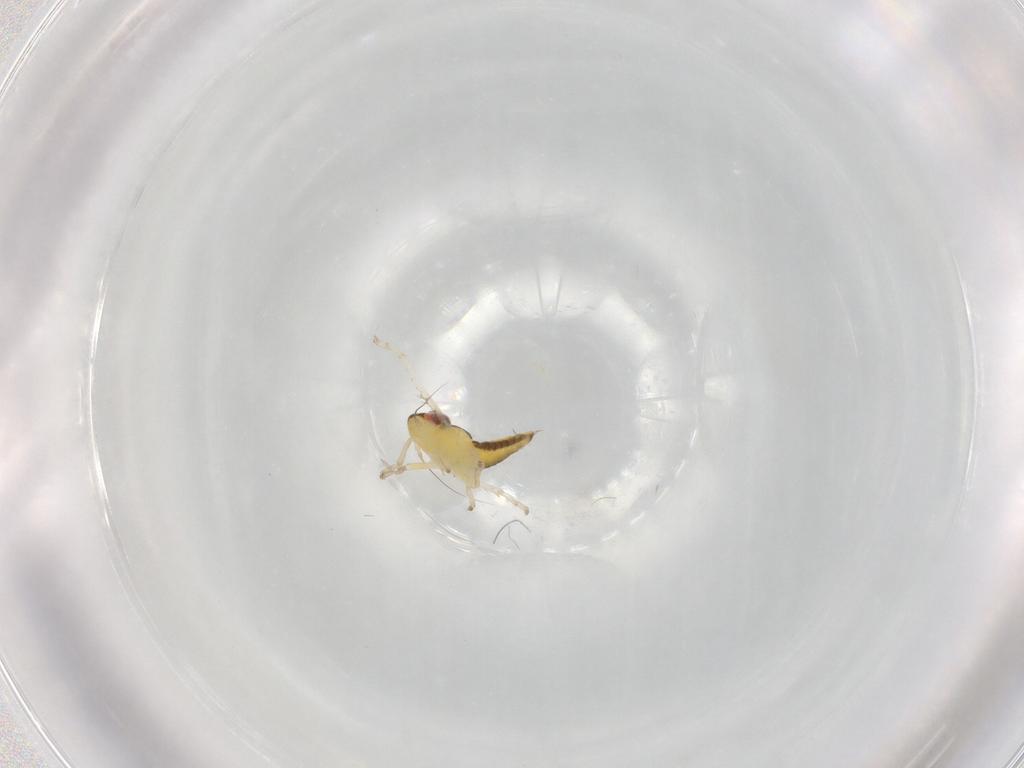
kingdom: Animalia
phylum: Arthropoda
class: Insecta
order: Hemiptera
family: Cicadellidae
